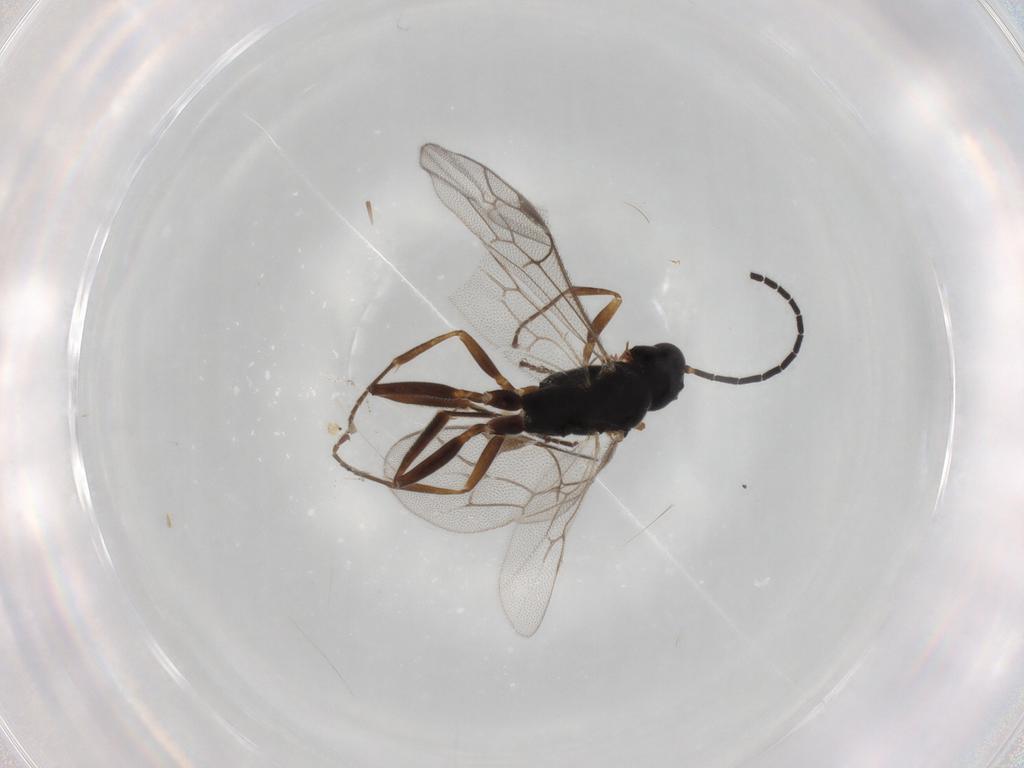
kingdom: Animalia
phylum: Arthropoda
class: Insecta
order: Hymenoptera
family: Ichneumonidae
